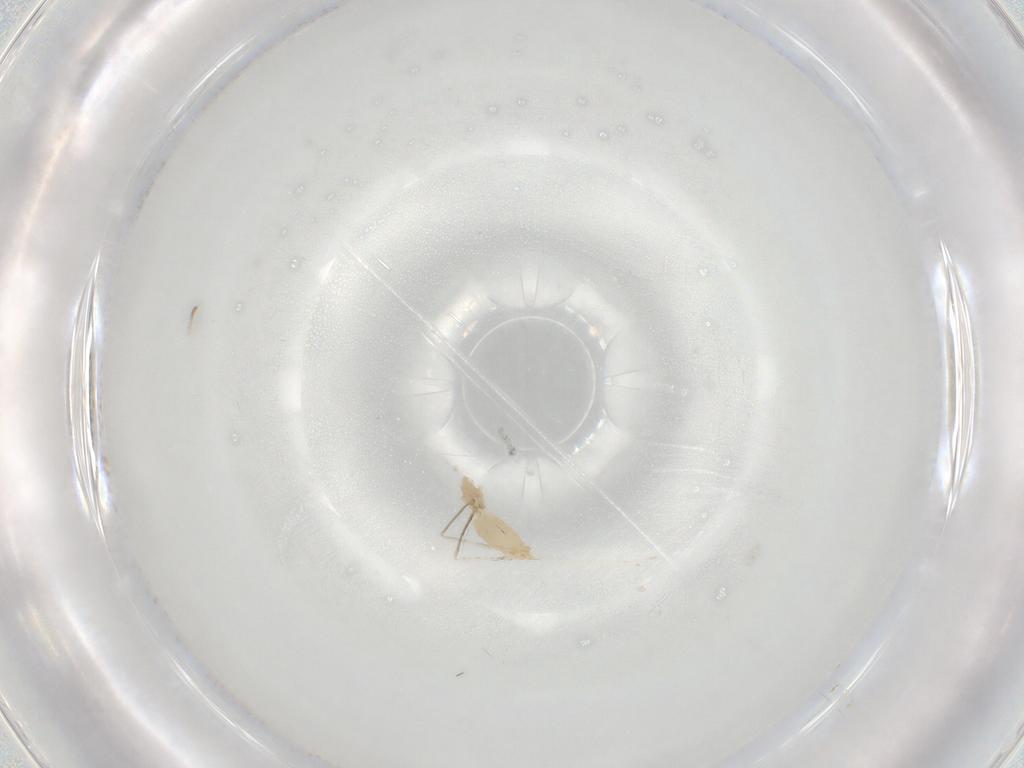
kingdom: Animalia
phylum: Arthropoda
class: Insecta
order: Diptera
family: Cecidomyiidae
